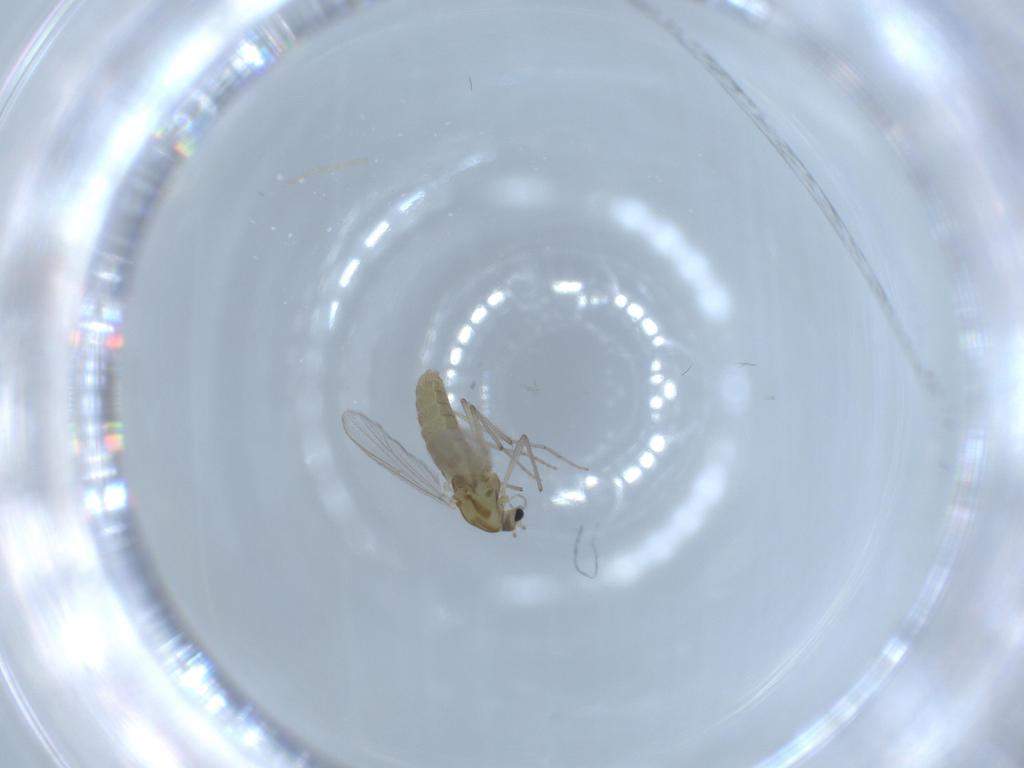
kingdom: Animalia
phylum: Arthropoda
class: Insecta
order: Diptera
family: Chironomidae
